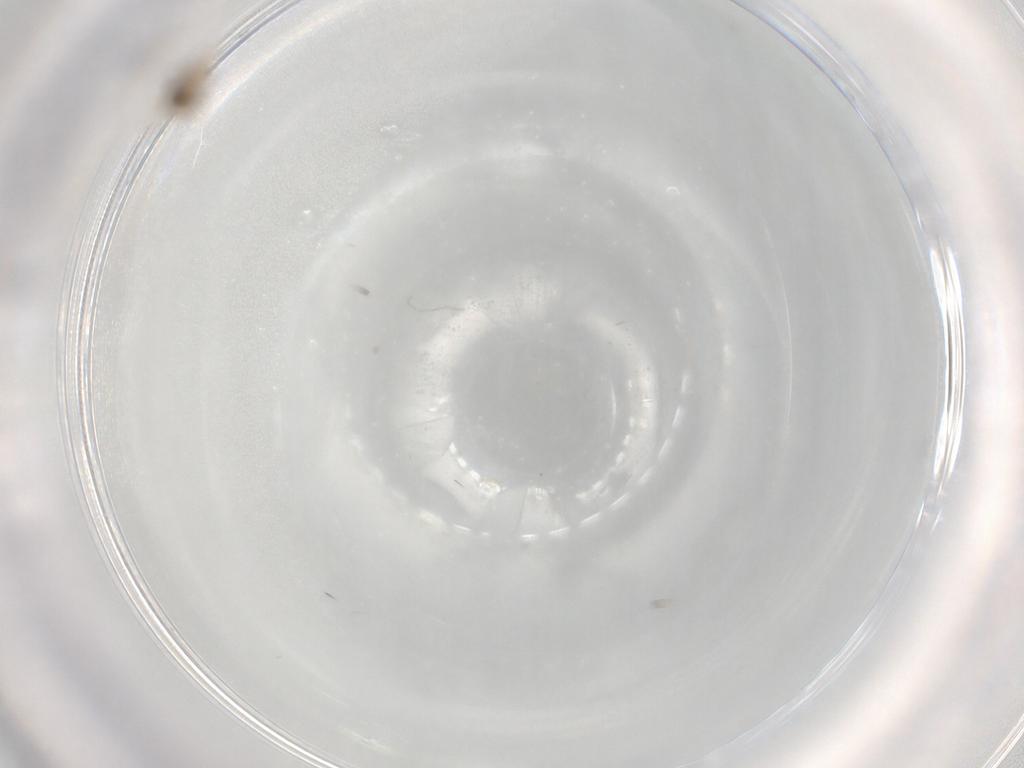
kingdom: Animalia
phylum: Arthropoda
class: Insecta
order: Diptera
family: Cecidomyiidae
